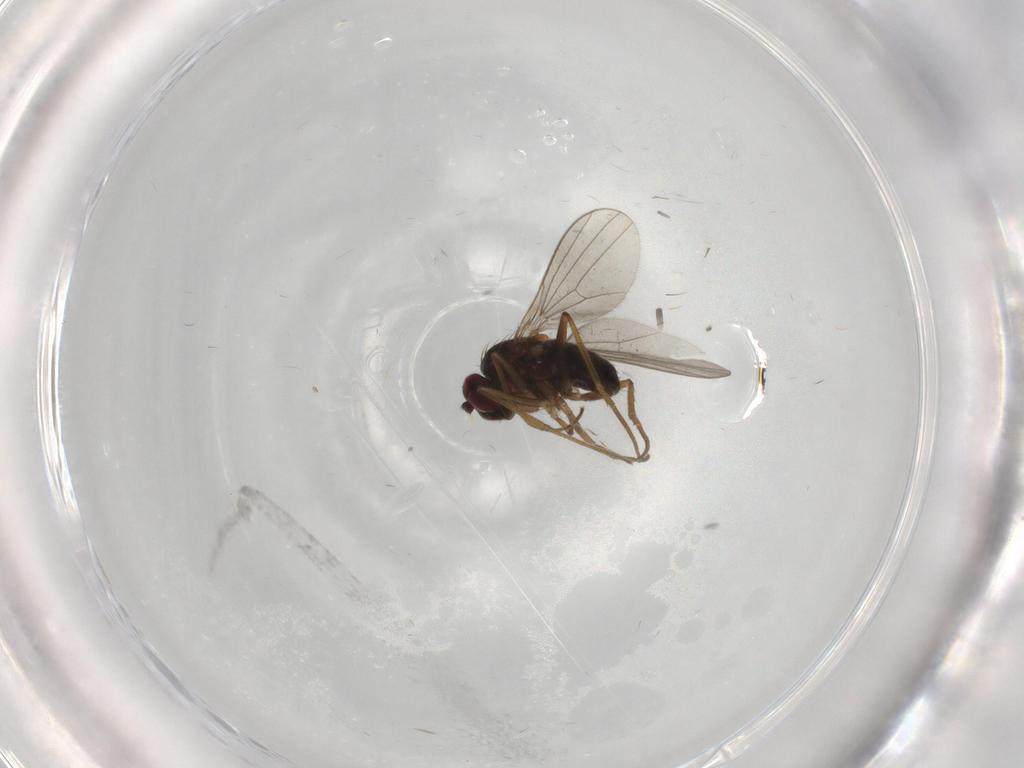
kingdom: Animalia
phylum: Arthropoda
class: Insecta
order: Diptera
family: Dolichopodidae
